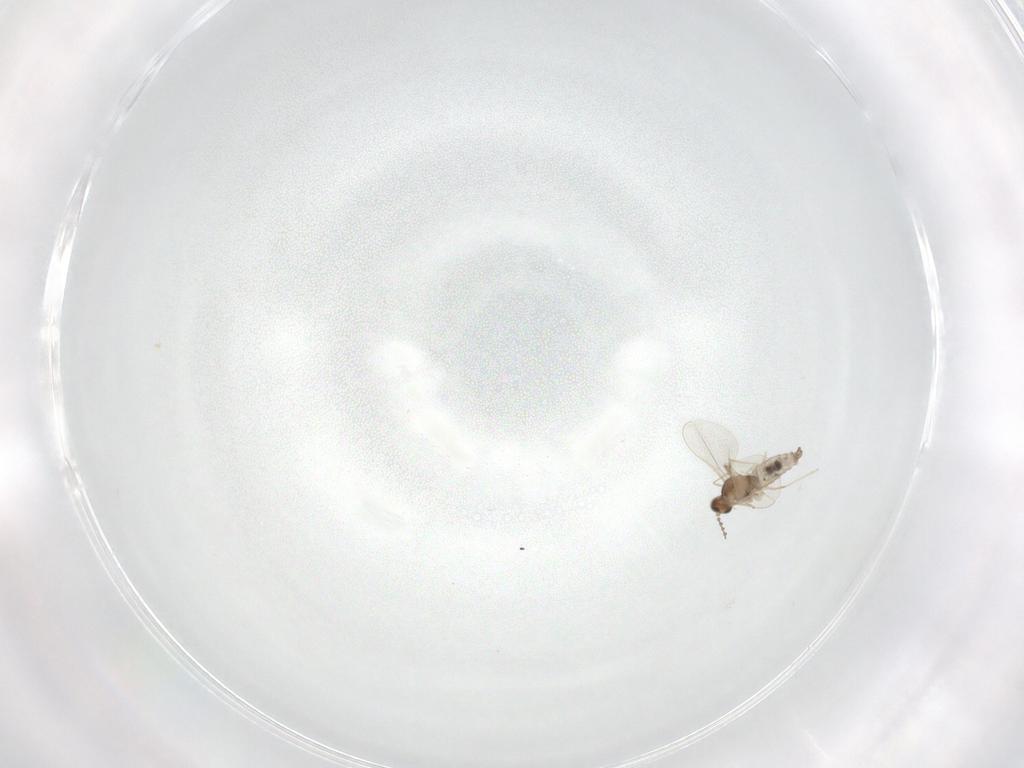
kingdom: Animalia
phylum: Arthropoda
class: Insecta
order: Diptera
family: Cecidomyiidae
